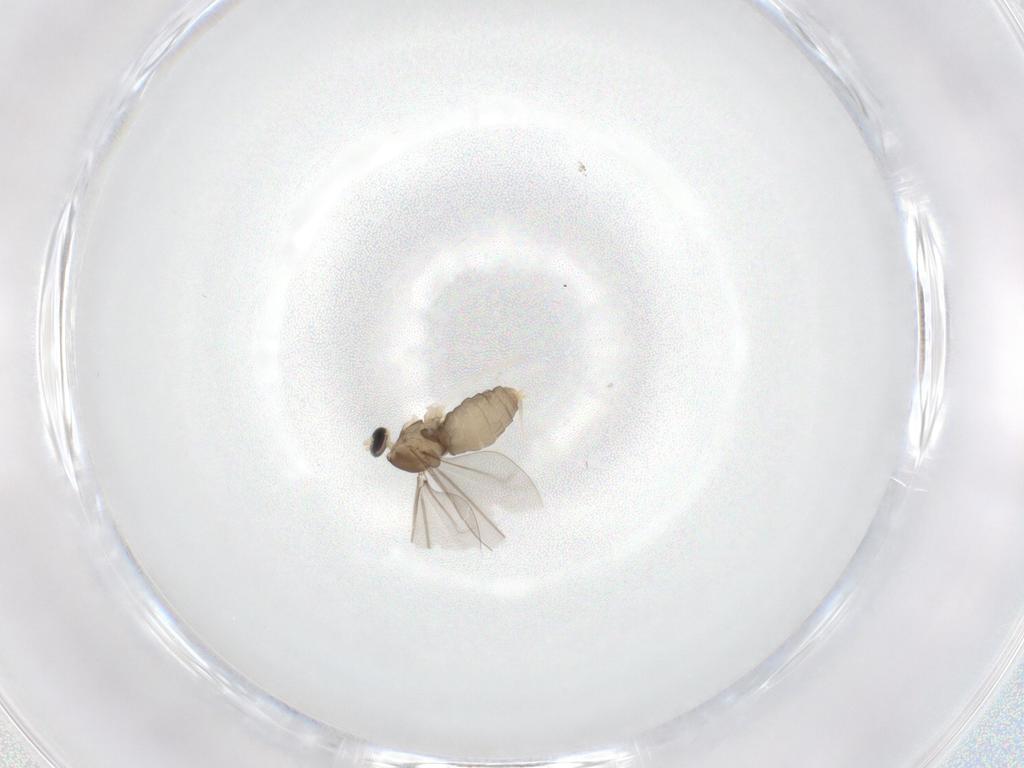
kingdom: Animalia
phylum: Arthropoda
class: Insecta
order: Diptera
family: Cecidomyiidae
